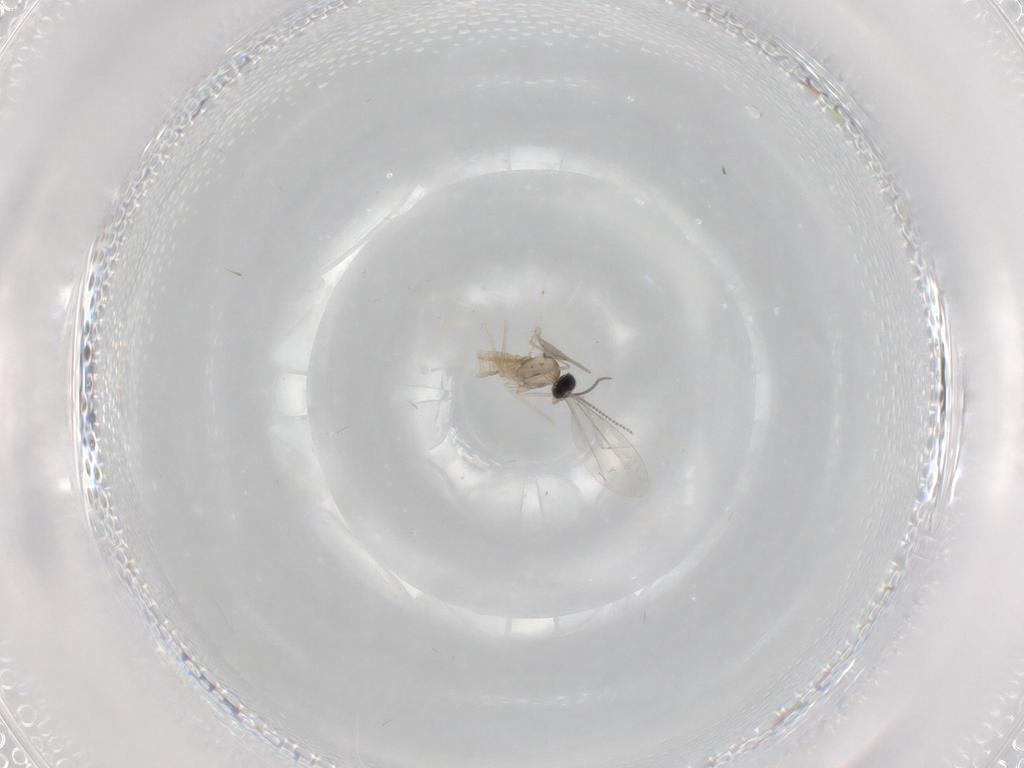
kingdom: Animalia
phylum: Arthropoda
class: Insecta
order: Diptera
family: Cecidomyiidae
